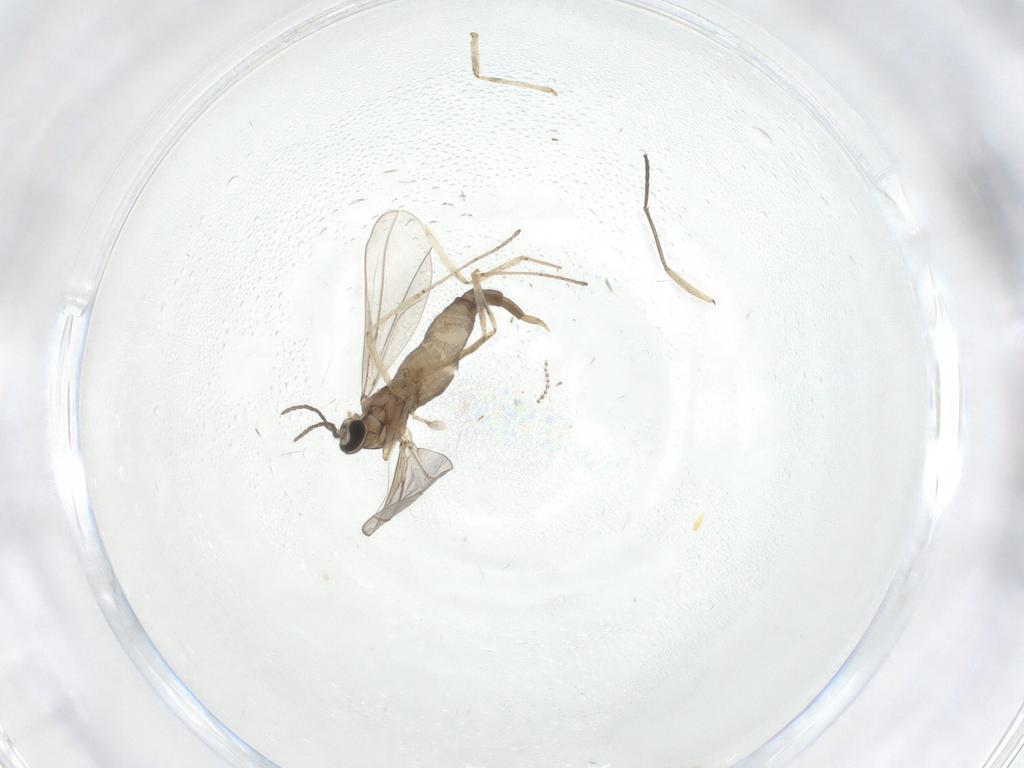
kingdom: Animalia
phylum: Arthropoda
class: Insecta
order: Diptera
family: Cecidomyiidae
